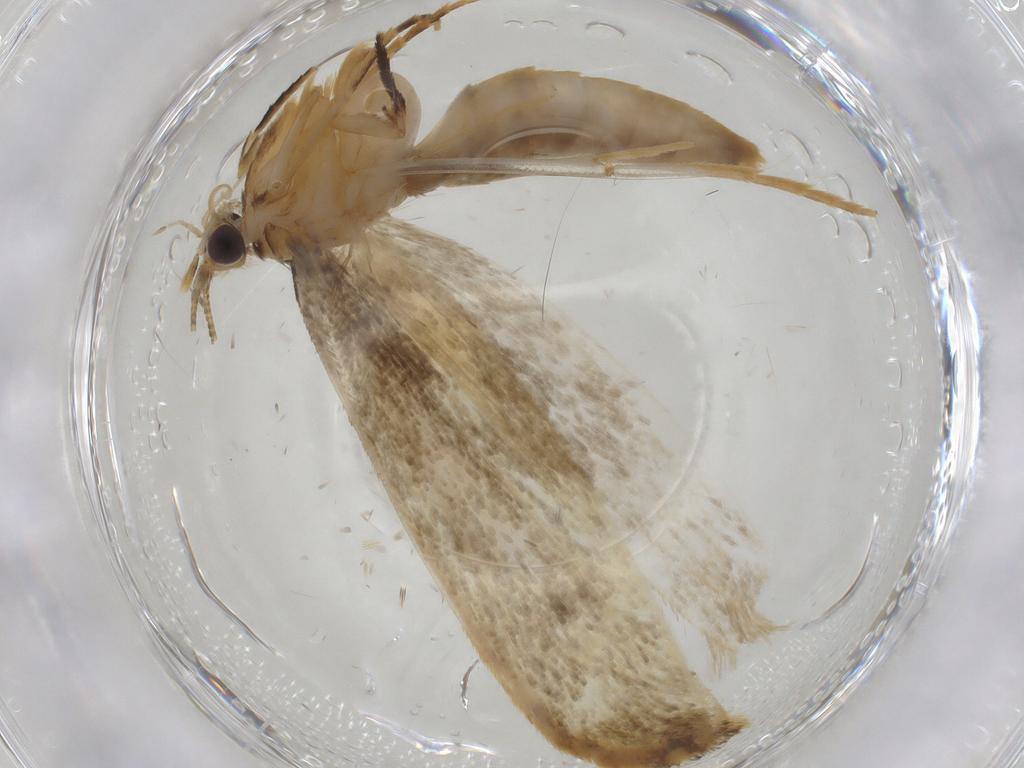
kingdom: Animalia
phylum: Arthropoda
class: Insecta
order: Lepidoptera
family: Tineidae
